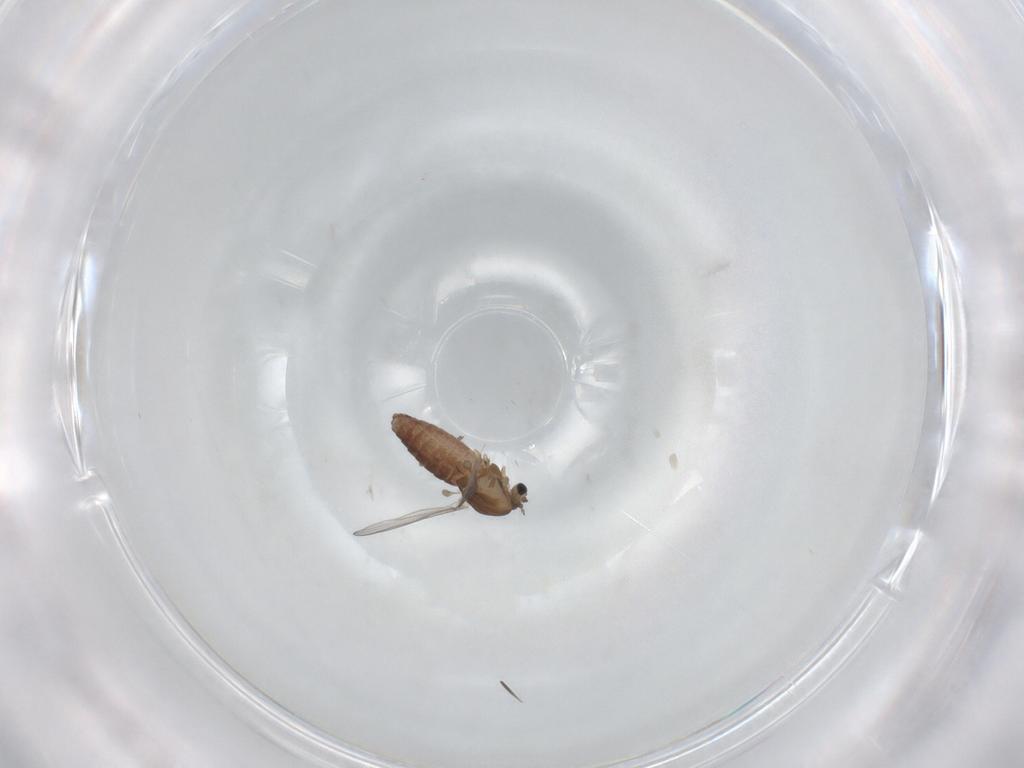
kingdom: Animalia
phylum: Arthropoda
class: Insecta
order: Diptera
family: Chironomidae
